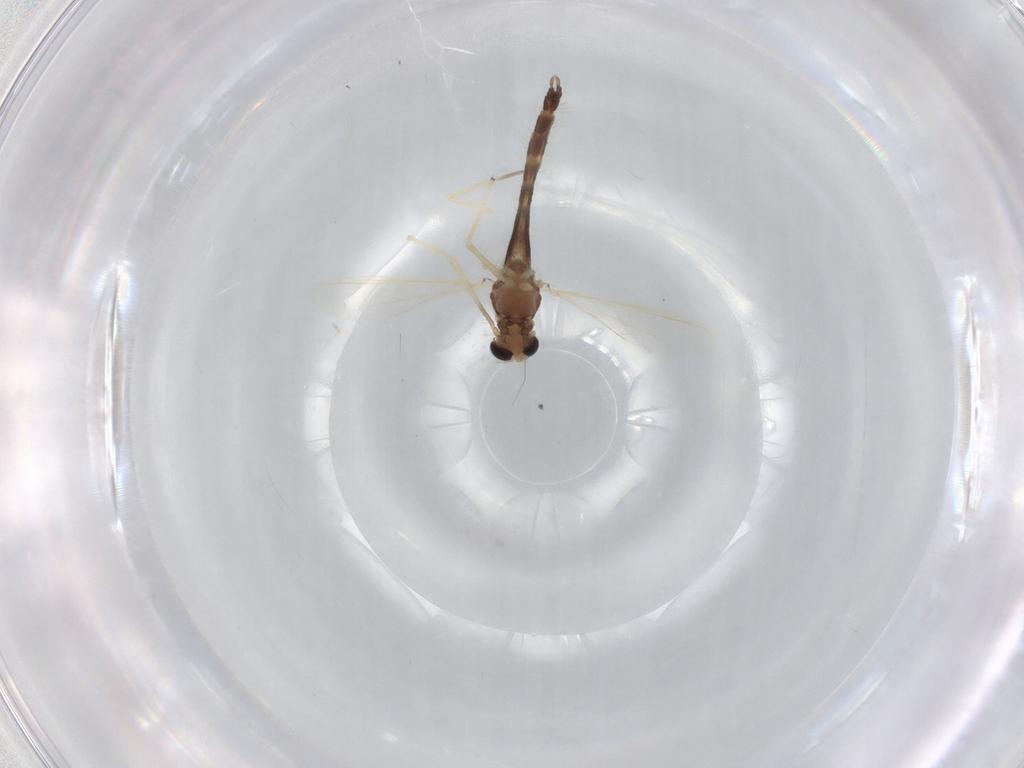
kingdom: Animalia
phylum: Arthropoda
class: Insecta
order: Diptera
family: Chironomidae
